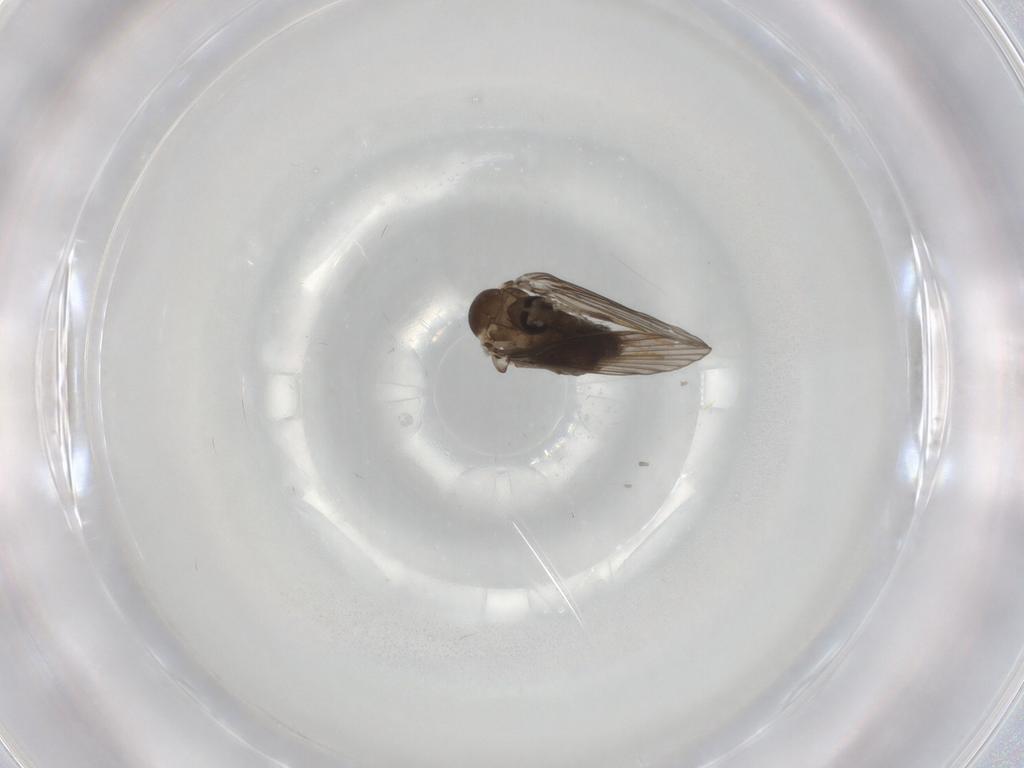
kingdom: Animalia
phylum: Arthropoda
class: Insecta
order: Diptera
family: Psychodidae
